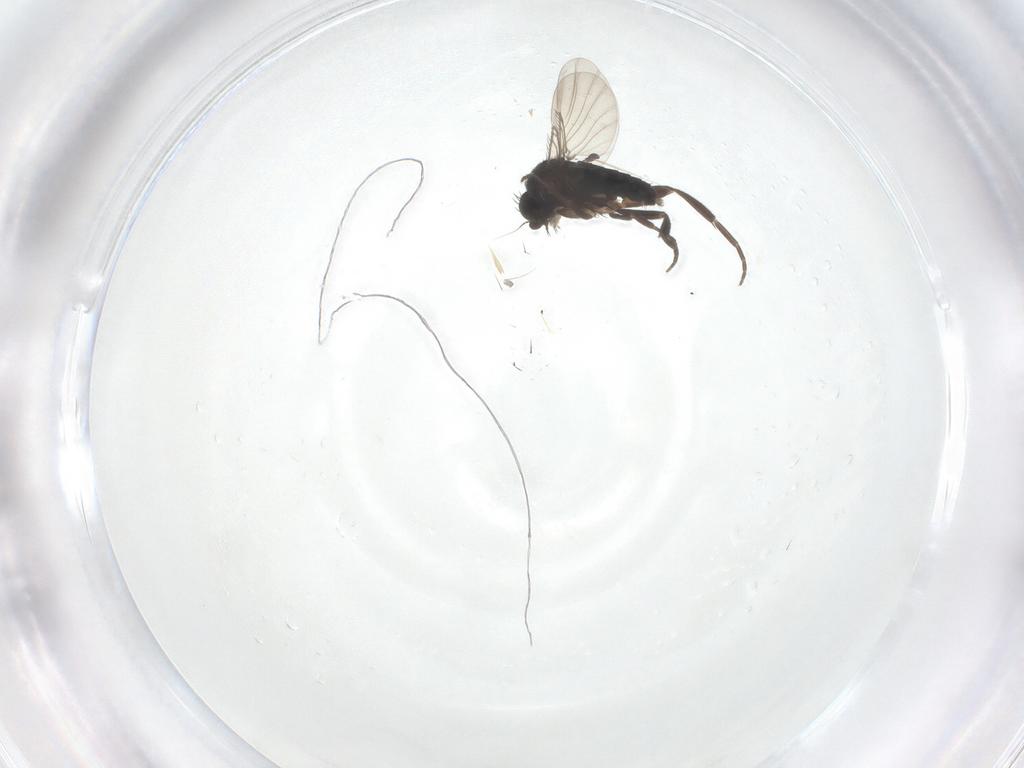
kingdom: Animalia
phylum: Arthropoda
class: Insecta
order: Diptera
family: Phoridae
